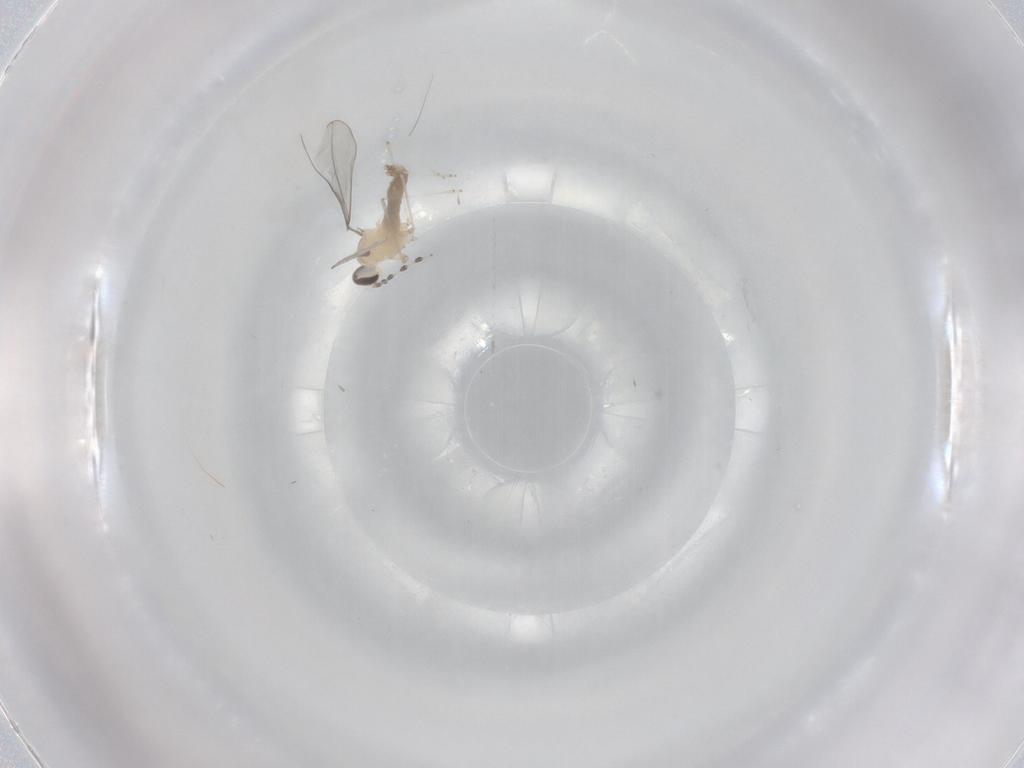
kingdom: Animalia
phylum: Arthropoda
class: Insecta
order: Diptera
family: Cecidomyiidae
